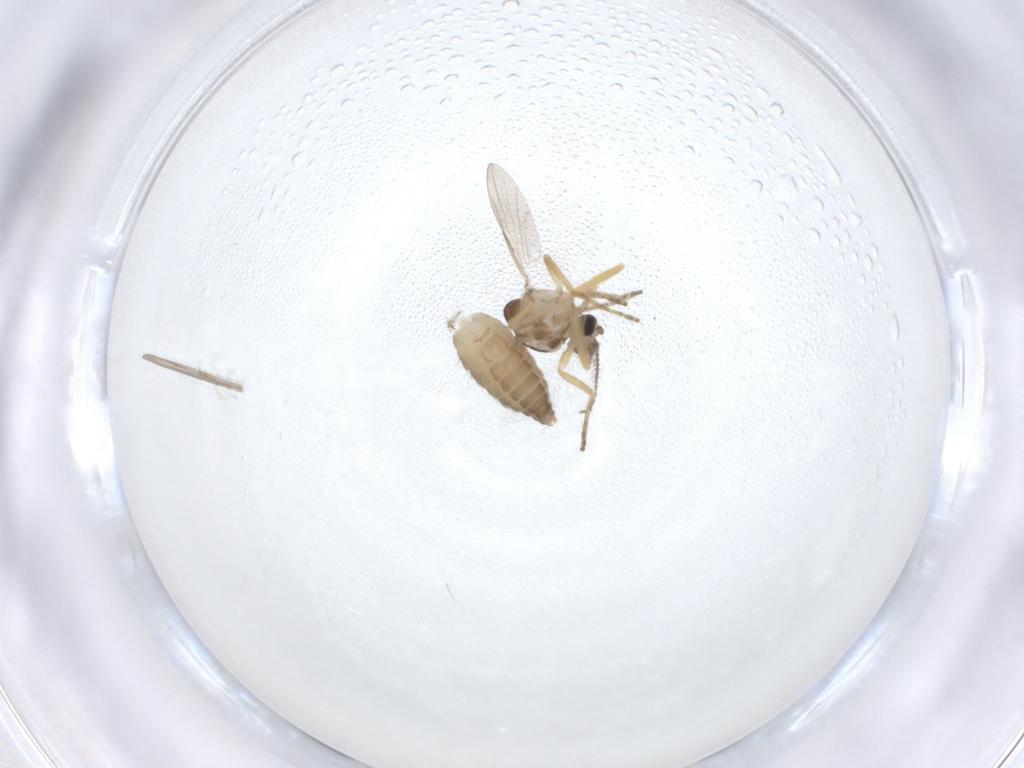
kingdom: Animalia
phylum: Arthropoda
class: Insecta
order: Diptera
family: Ceratopogonidae
